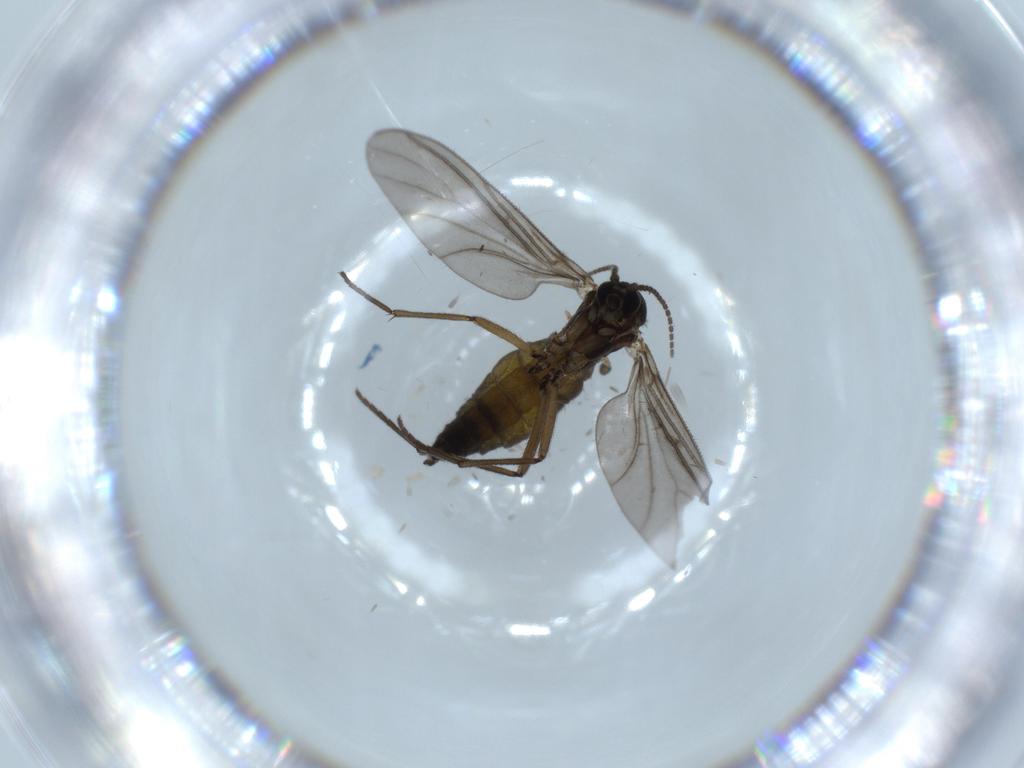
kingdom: Animalia
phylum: Arthropoda
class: Insecta
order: Diptera
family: Sciaridae
